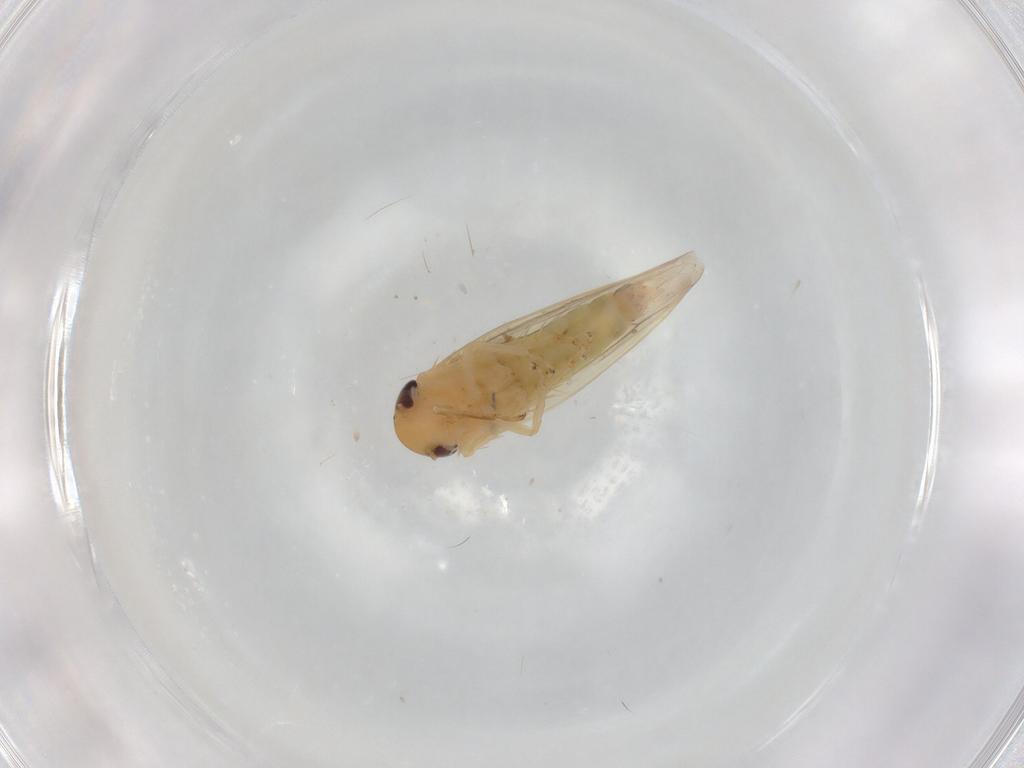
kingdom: Animalia
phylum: Arthropoda
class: Insecta
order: Hemiptera
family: Cicadellidae
